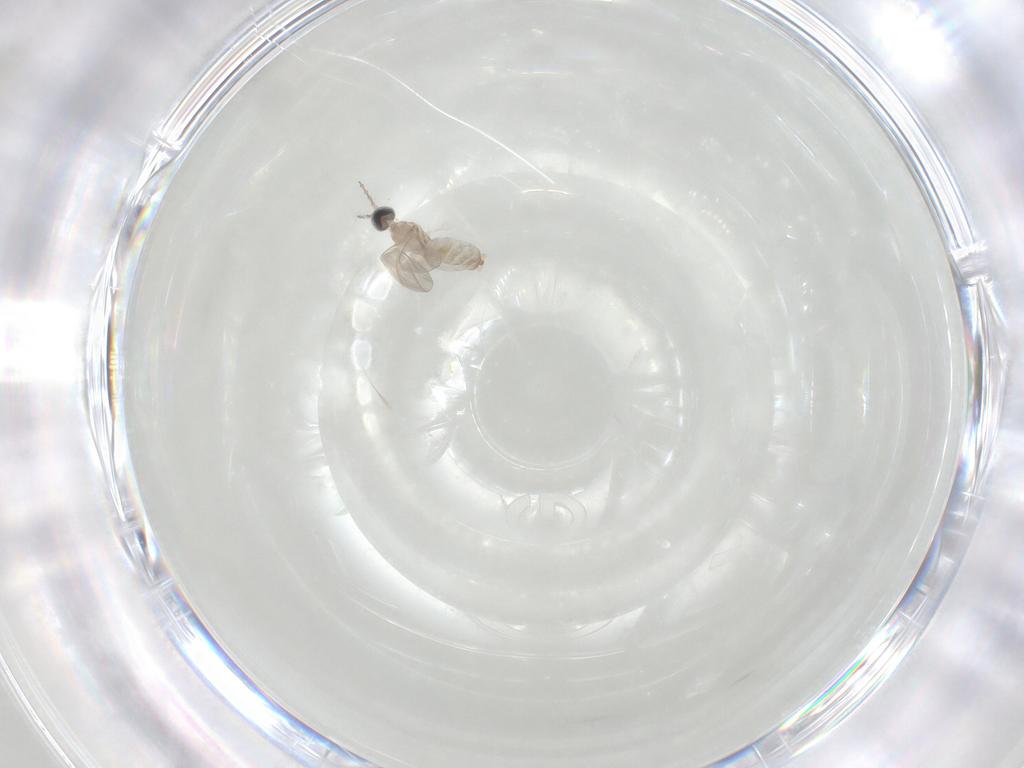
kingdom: Animalia
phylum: Arthropoda
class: Insecta
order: Diptera
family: Cecidomyiidae
